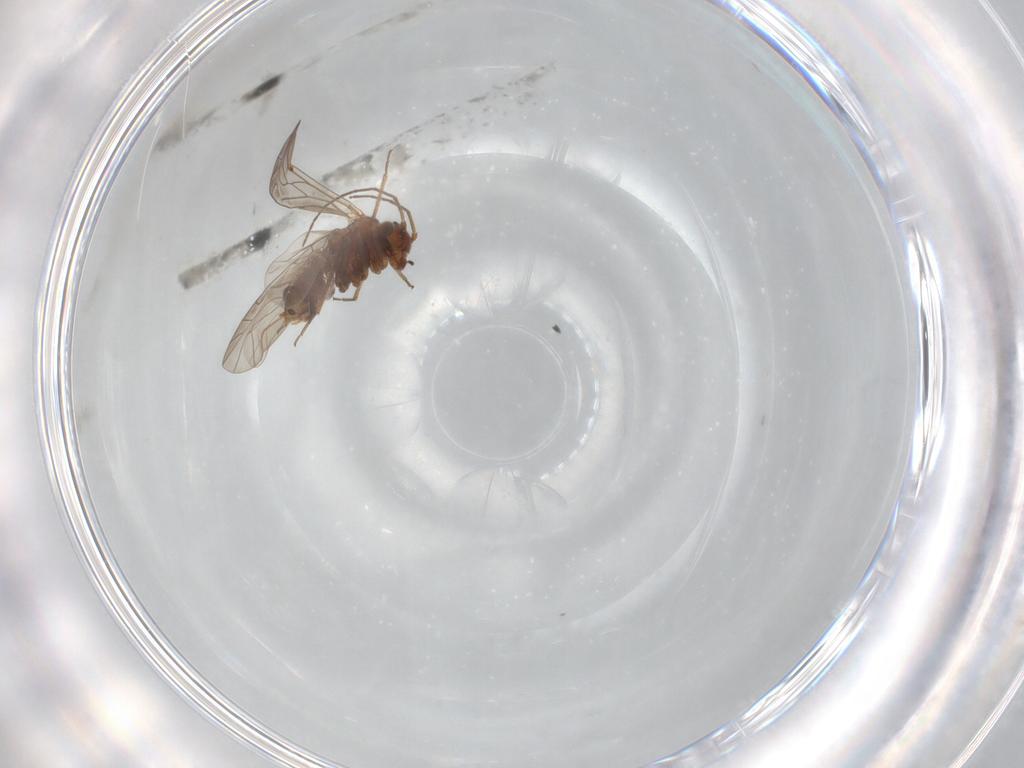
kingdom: Animalia
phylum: Arthropoda
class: Insecta
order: Psocodea
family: Lachesillidae
